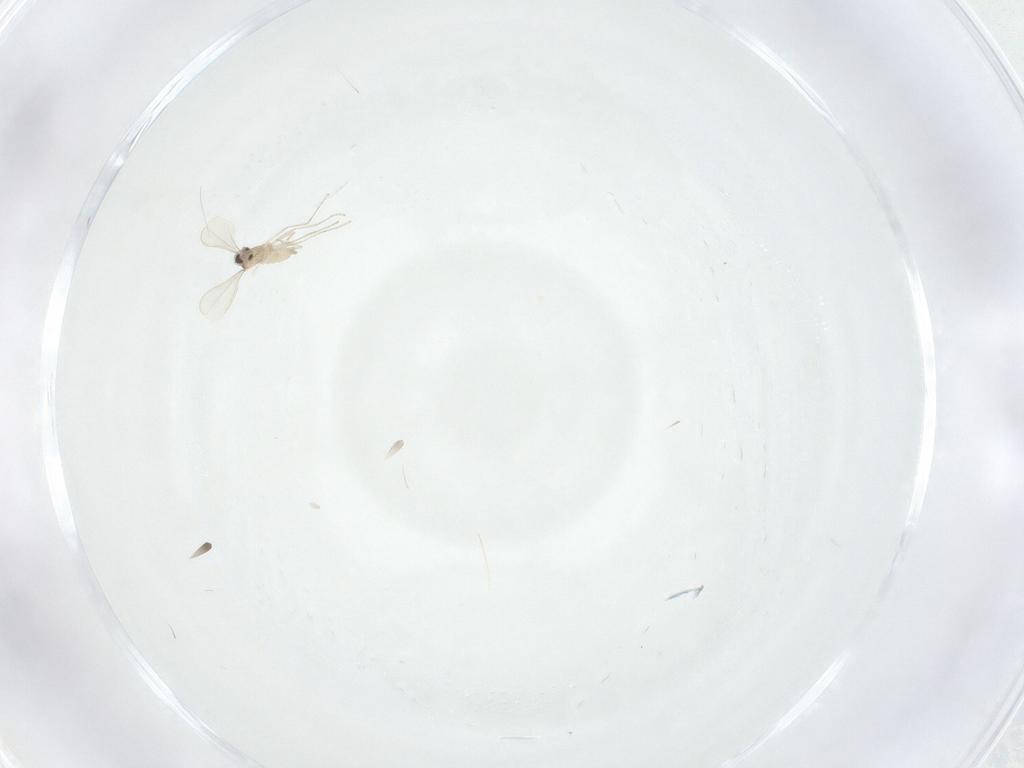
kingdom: Animalia
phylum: Arthropoda
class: Insecta
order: Diptera
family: Cecidomyiidae
